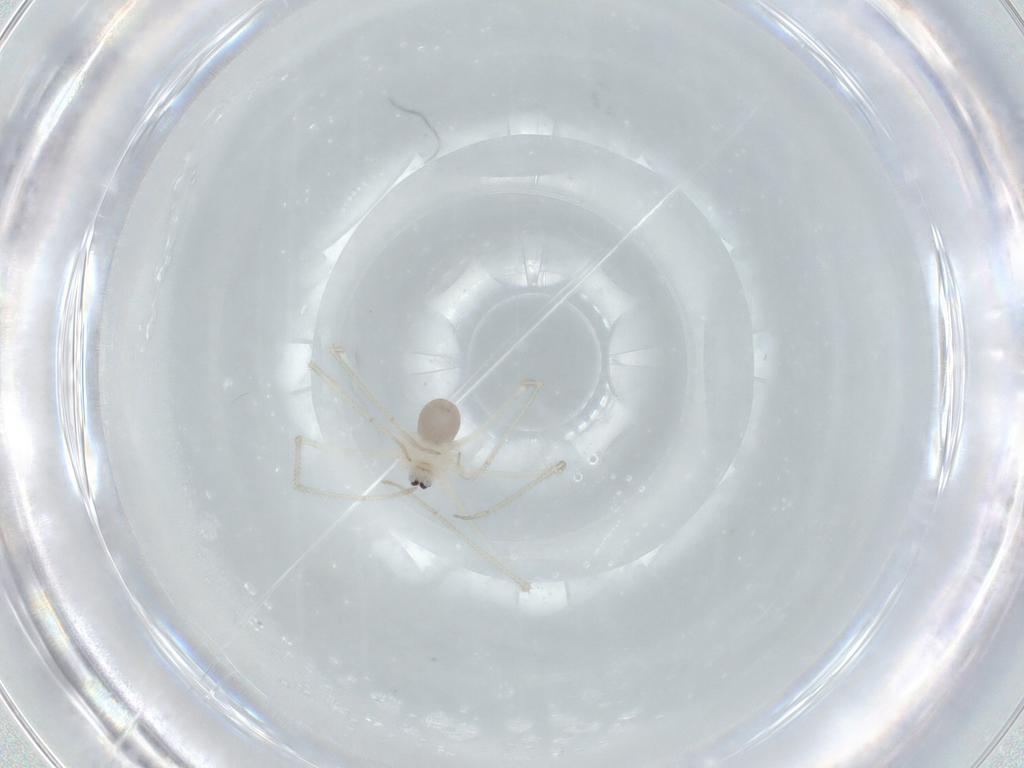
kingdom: Animalia
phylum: Arthropoda
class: Arachnida
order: Araneae
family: Pholcidae
